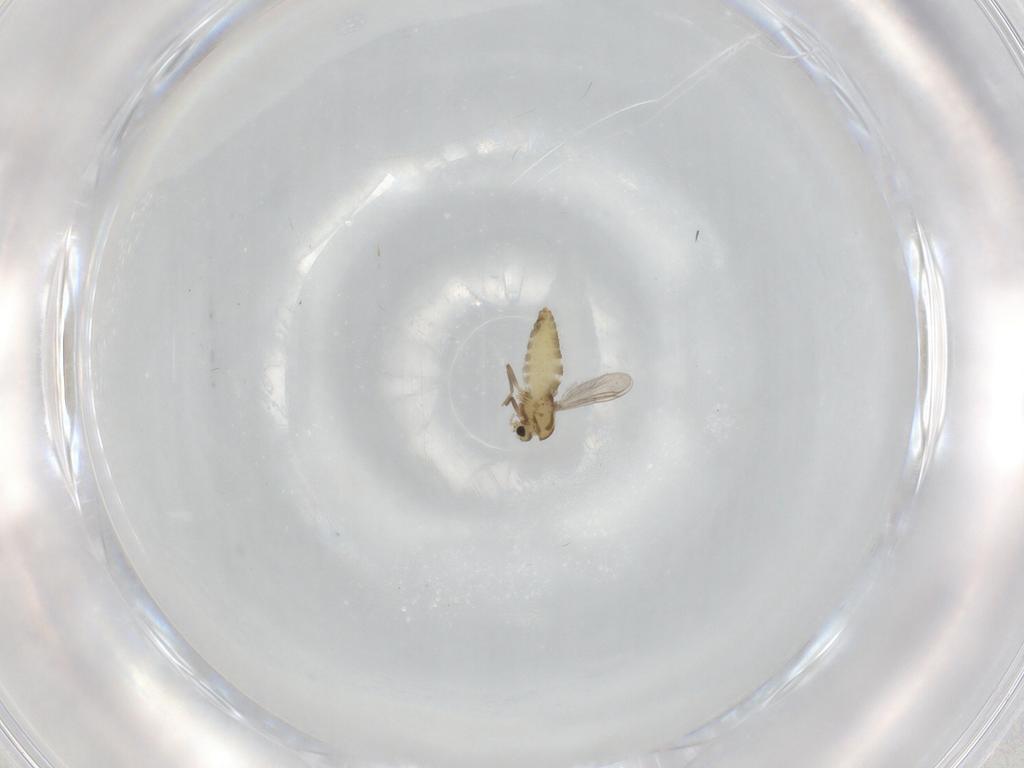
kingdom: Animalia
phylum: Arthropoda
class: Insecta
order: Diptera
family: Chironomidae
